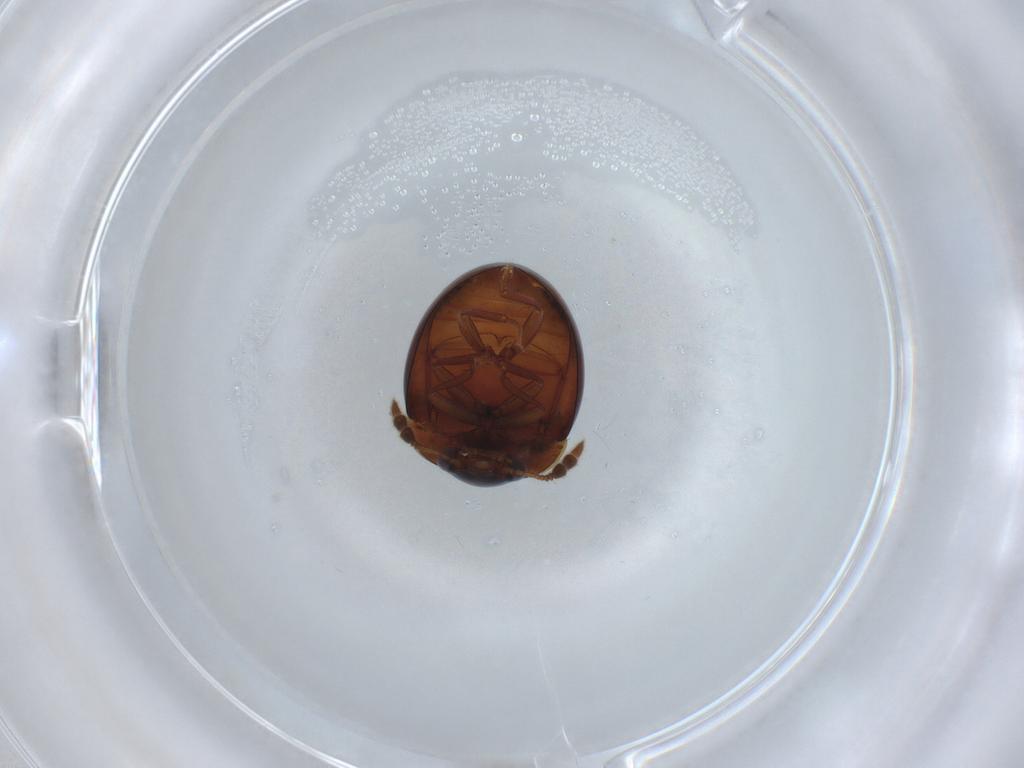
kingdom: Animalia
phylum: Arthropoda
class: Insecta
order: Coleoptera
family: Leiodidae
